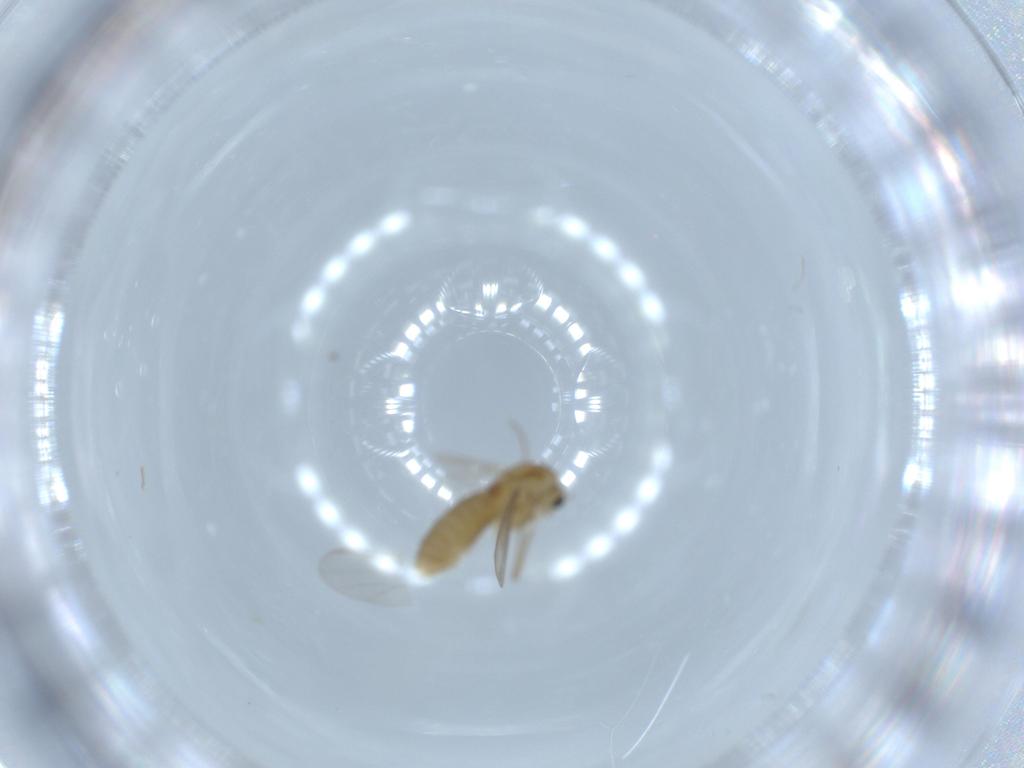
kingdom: Animalia
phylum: Arthropoda
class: Insecta
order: Diptera
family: Chironomidae
